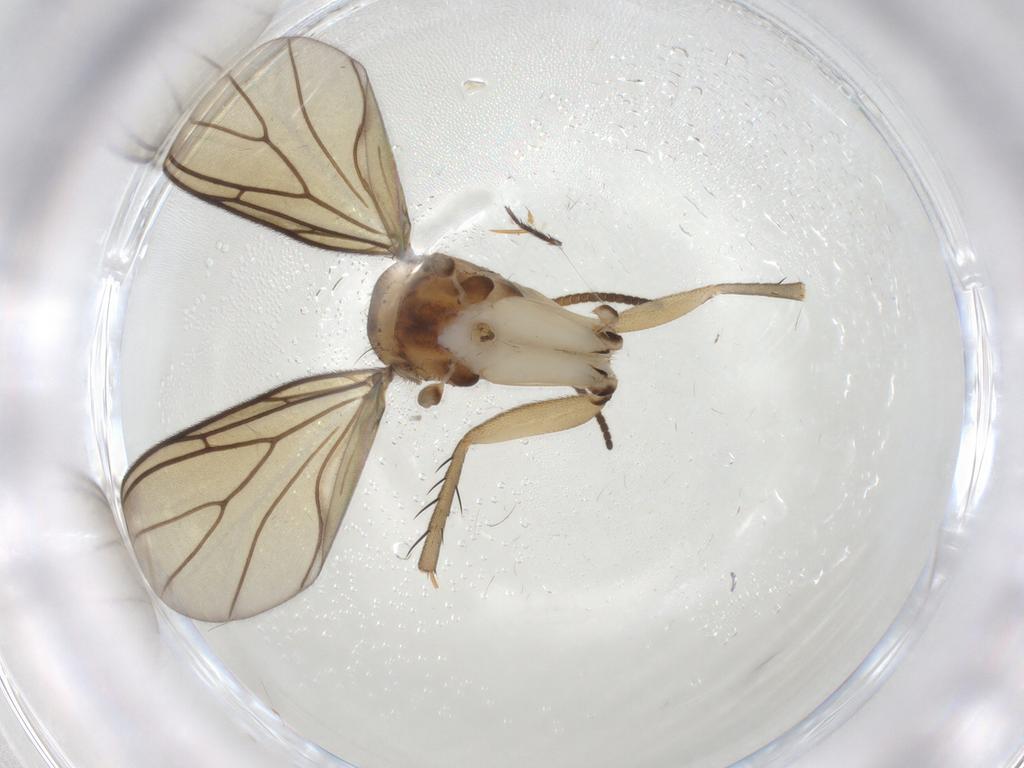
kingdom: Animalia
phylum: Arthropoda
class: Insecta
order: Diptera
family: Mycetophilidae
